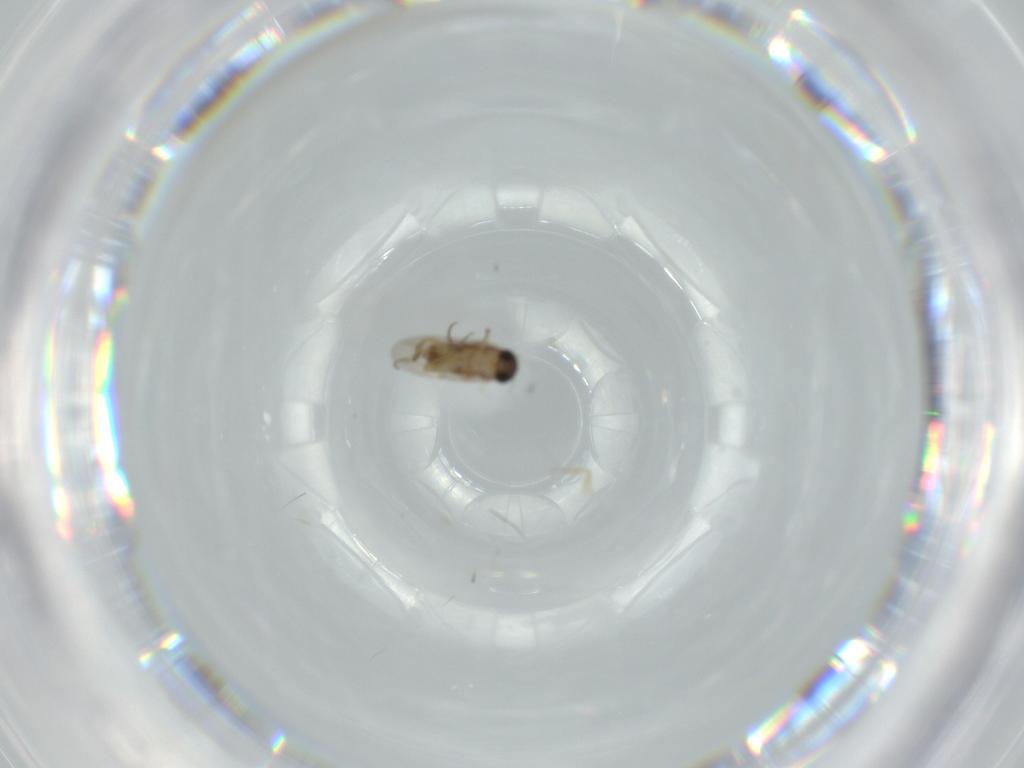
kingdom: Animalia
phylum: Arthropoda
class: Insecta
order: Diptera
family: Phoridae
